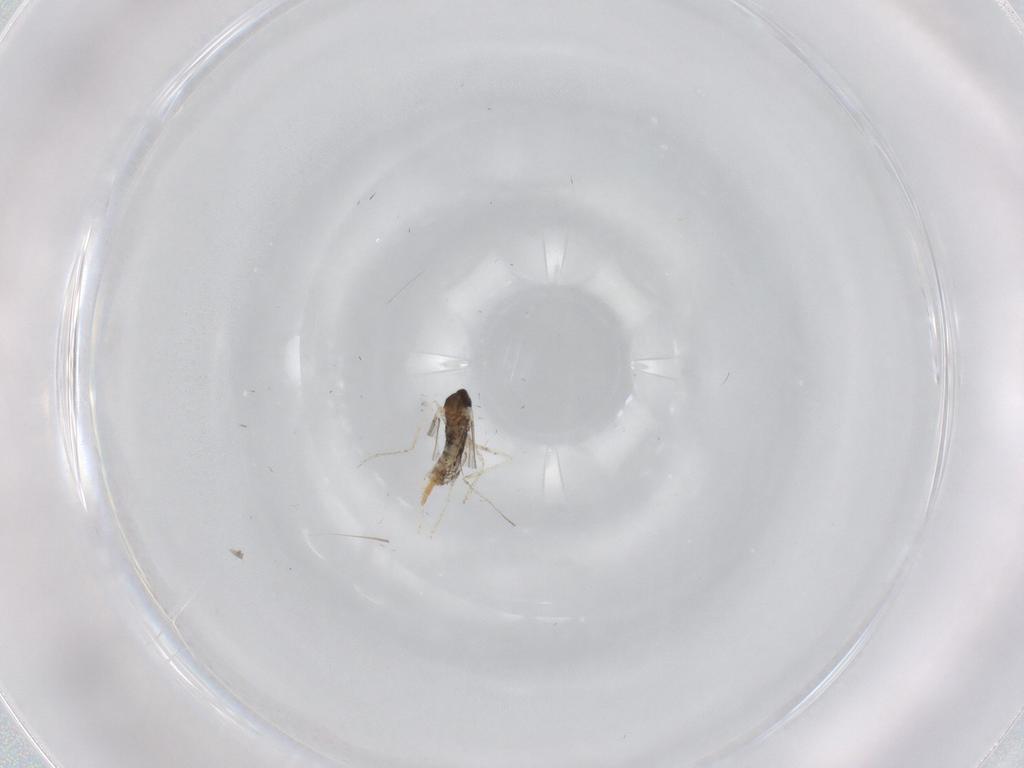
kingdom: Animalia
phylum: Arthropoda
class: Insecta
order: Diptera
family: Cecidomyiidae
